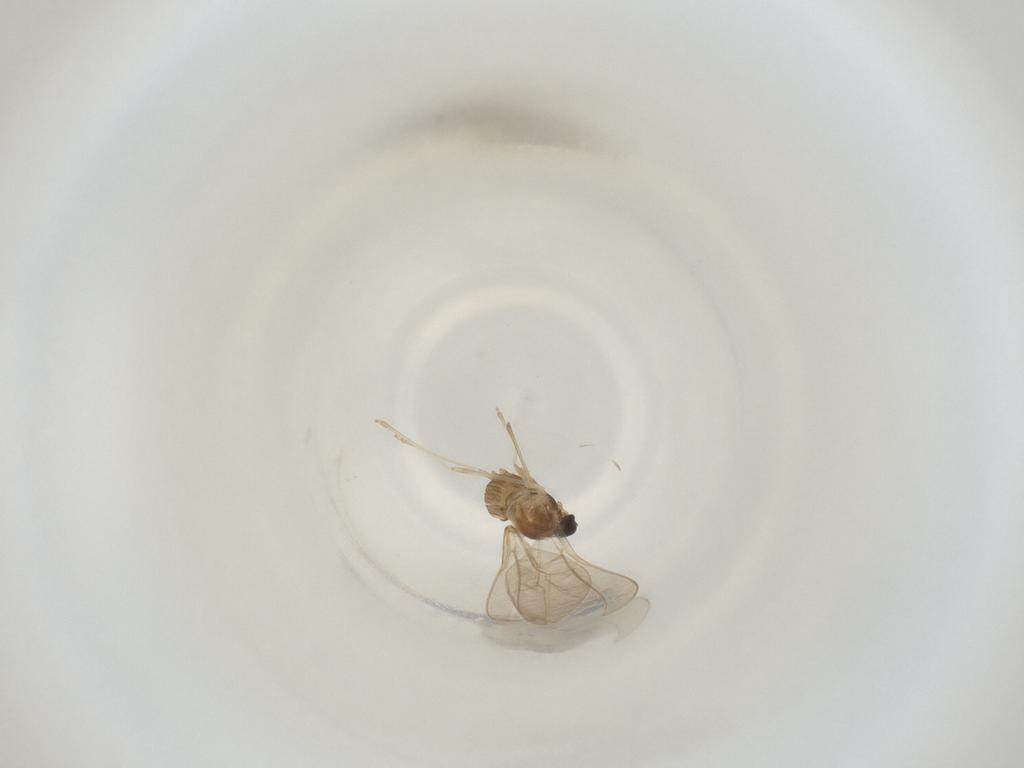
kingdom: Animalia
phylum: Arthropoda
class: Insecta
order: Diptera
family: Cecidomyiidae
